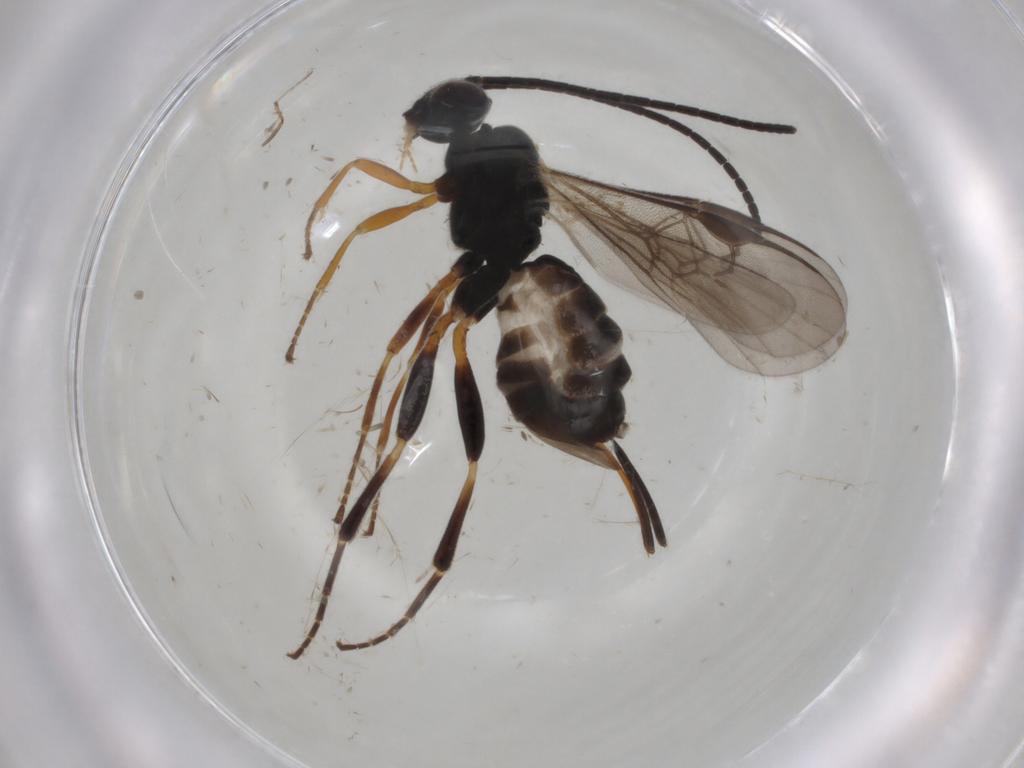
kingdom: Animalia
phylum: Arthropoda
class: Insecta
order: Hymenoptera
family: Braconidae
